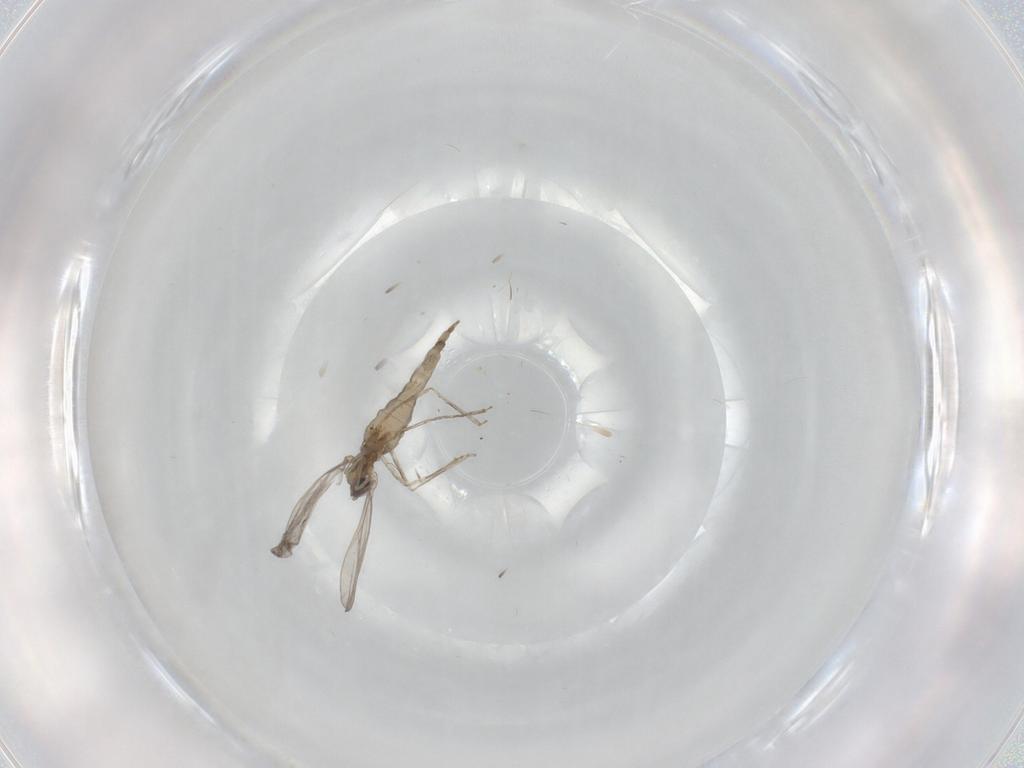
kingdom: Animalia
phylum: Arthropoda
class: Insecta
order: Diptera
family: Cecidomyiidae
